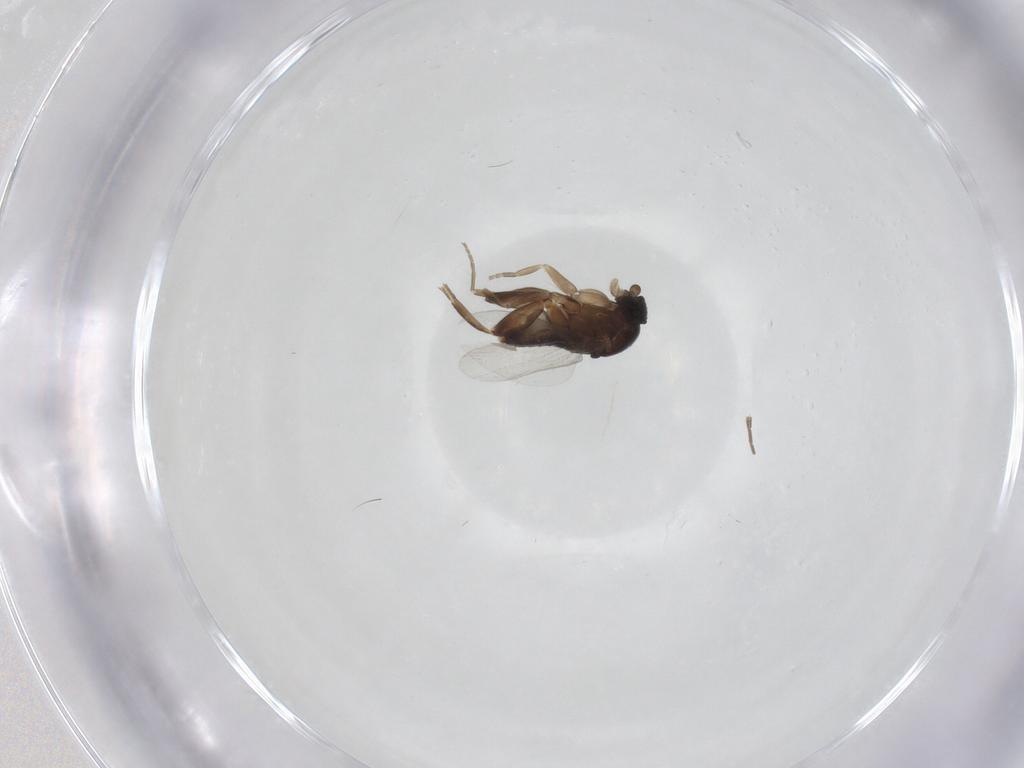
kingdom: Animalia
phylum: Arthropoda
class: Insecta
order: Diptera
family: Phoridae
